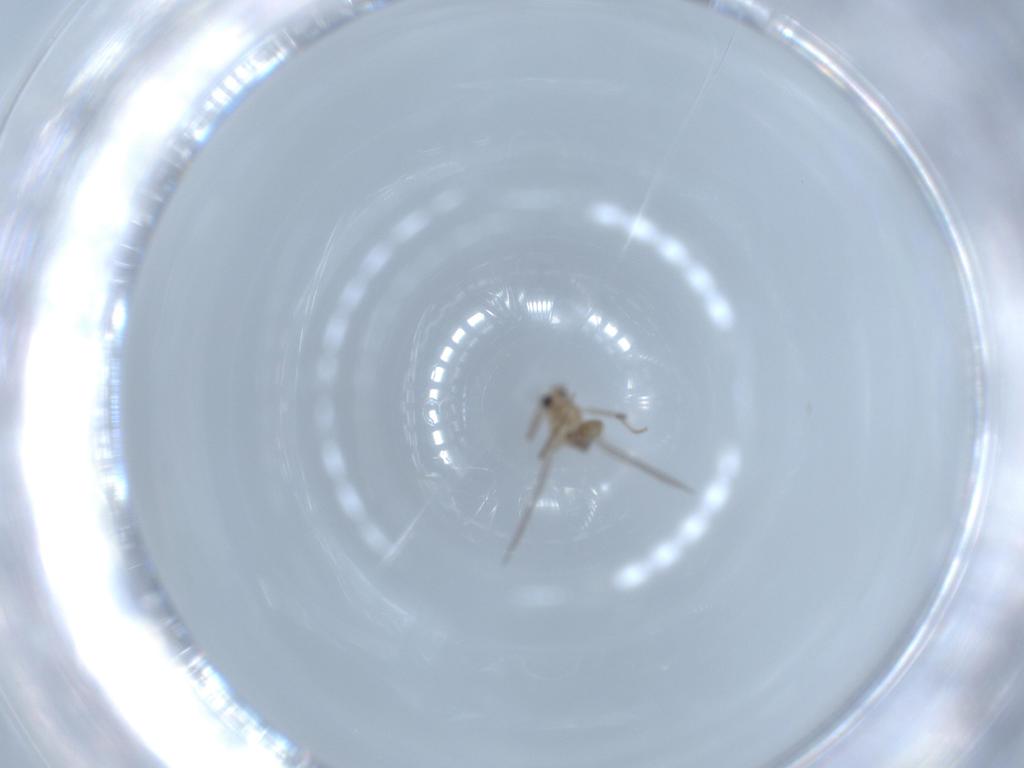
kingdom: Animalia
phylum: Arthropoda
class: Insecta
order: Diptera
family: Chironomidae
